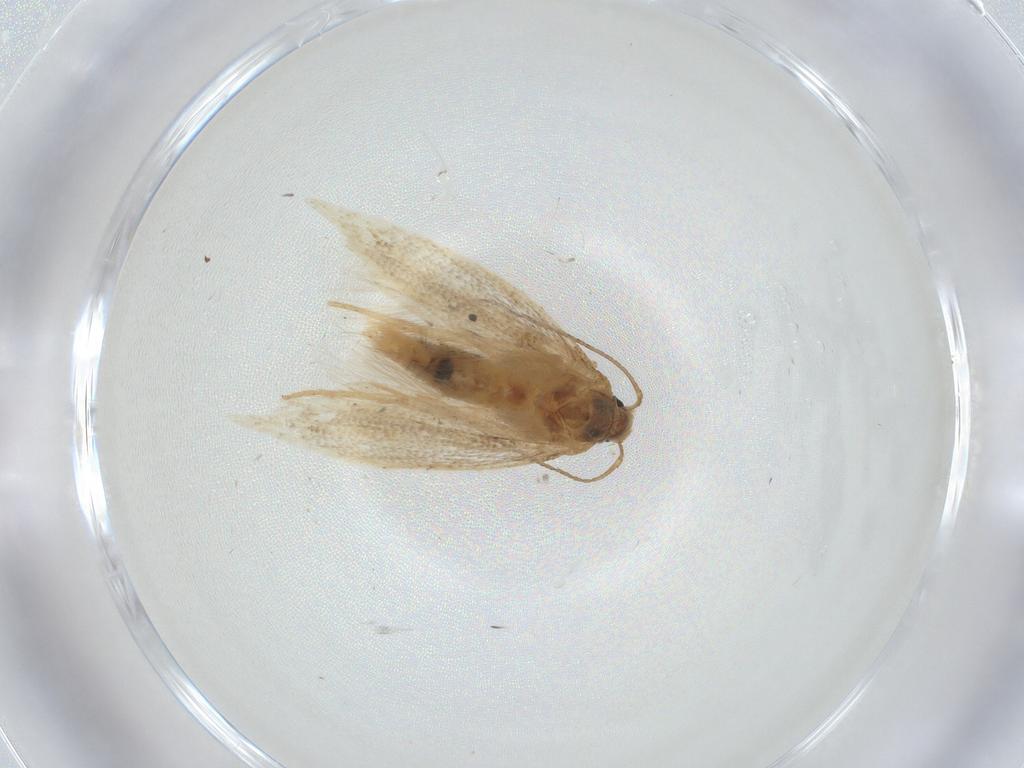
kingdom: Animalia
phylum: Arthropoda
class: Insecta
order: Lepidoptera
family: Gelechiidae
